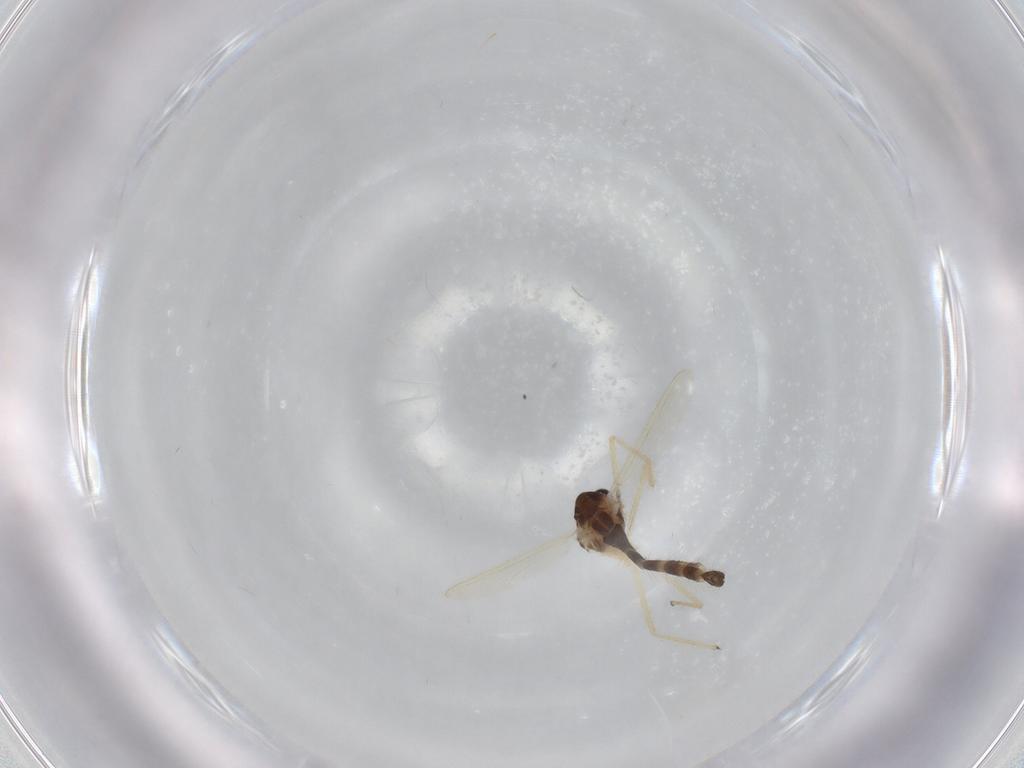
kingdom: Animalia
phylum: Arthropoda
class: Insecta
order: Diptera
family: Chironomidae
